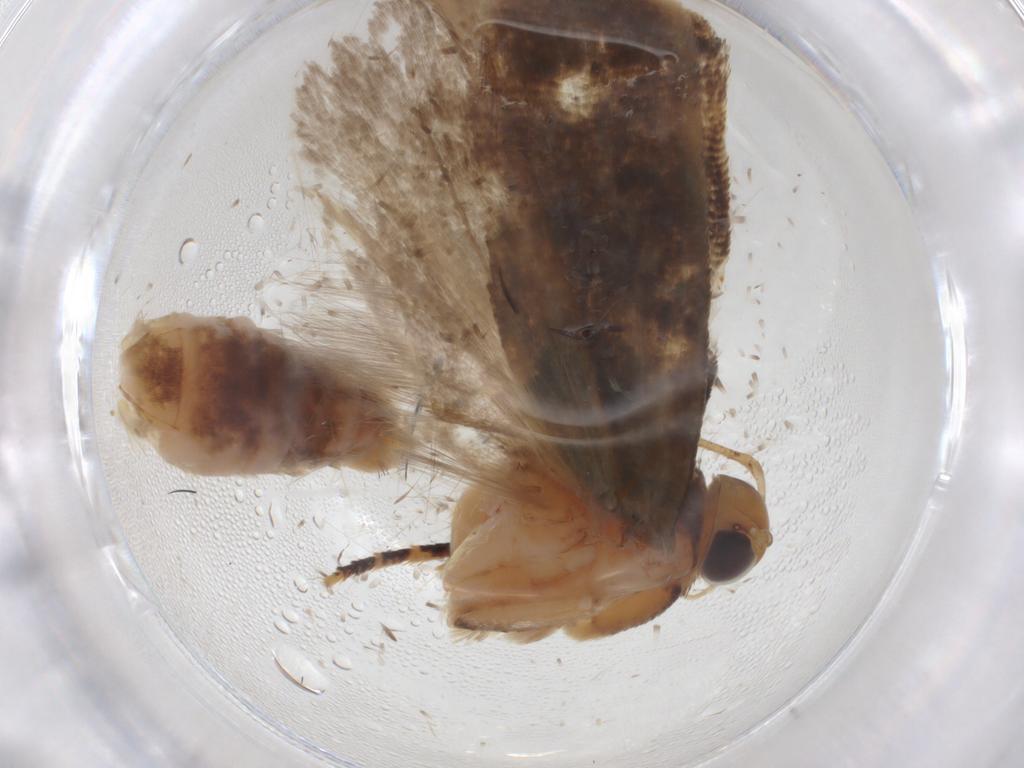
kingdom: Animalia
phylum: Arthropoda
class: Insecta
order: Lepidoptera
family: Gelechiidae
